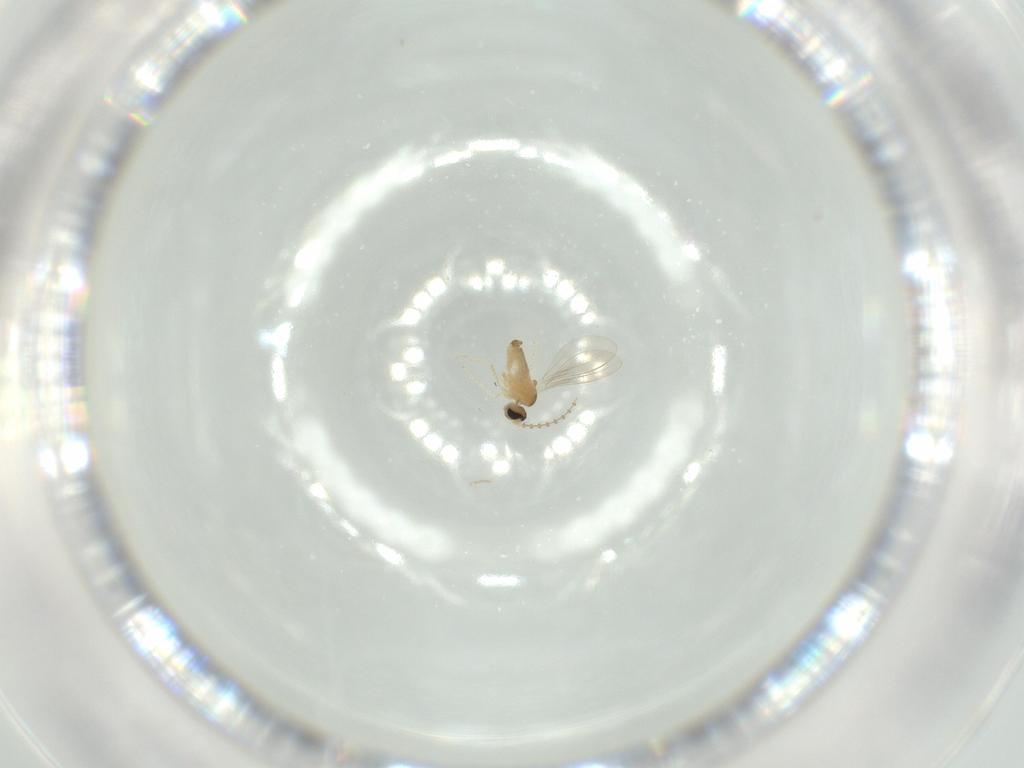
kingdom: Animalia
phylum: Arthropoda
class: Insecta
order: Diptera
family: Cecidomyiidae
